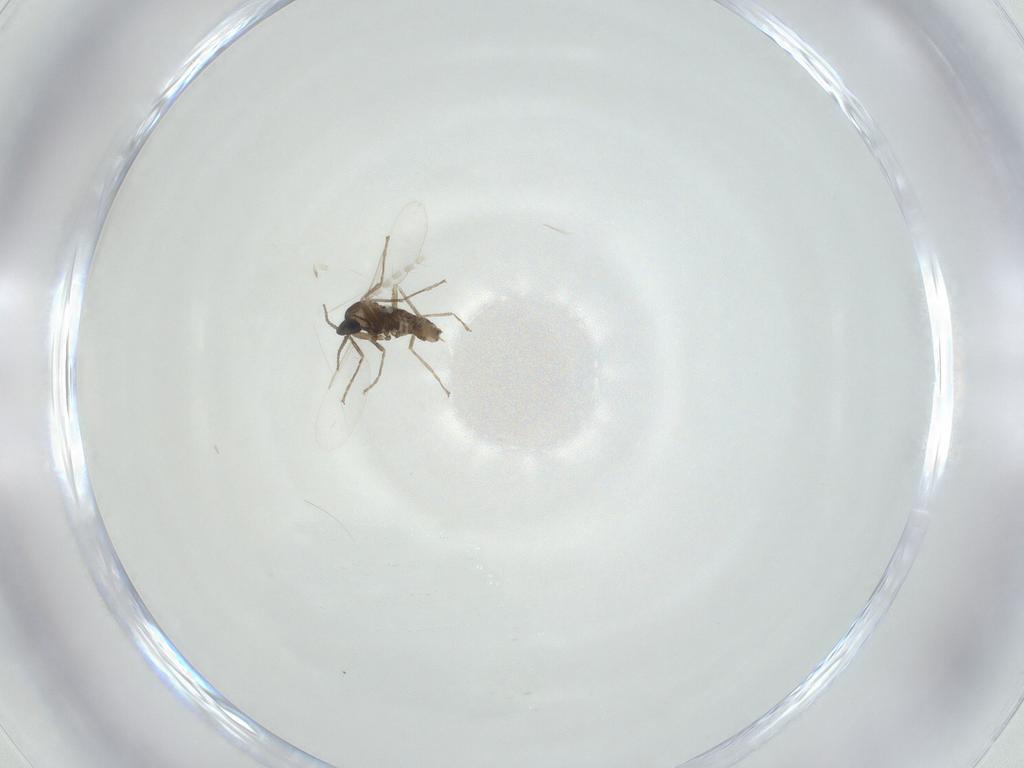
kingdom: Animalia
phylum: Arthropoda
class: Insecta
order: Diptera
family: Cecidomyiidae
